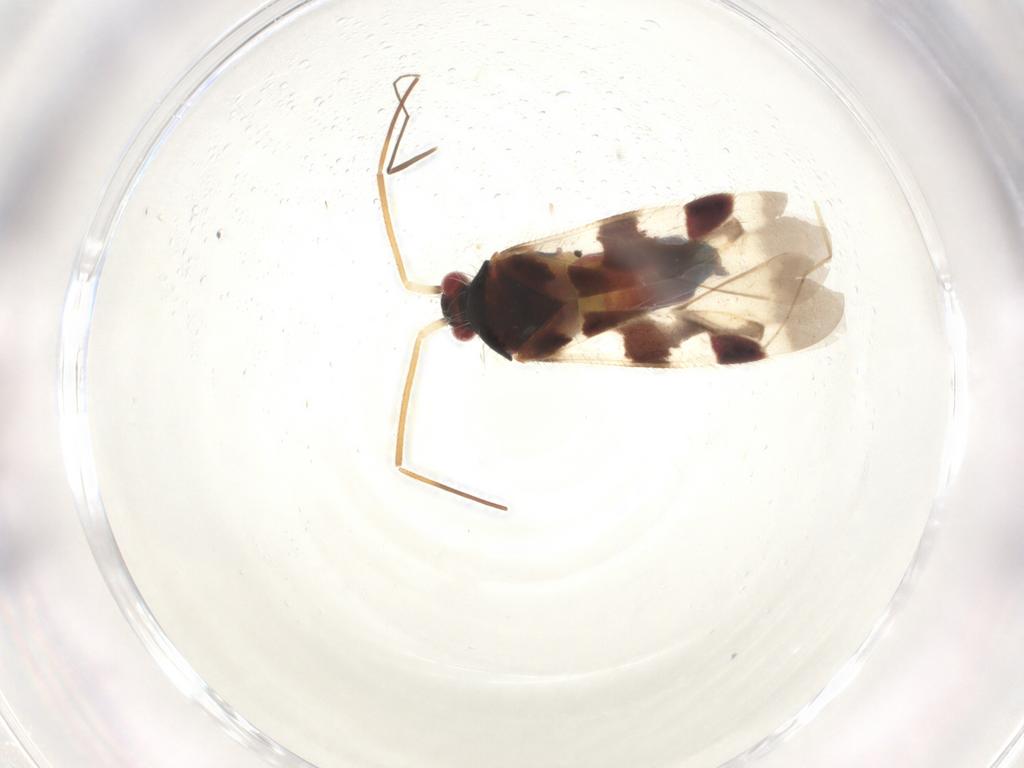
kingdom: Animalia
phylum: Arthropoda
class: Insecta
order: Hemiptera
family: Miridae
